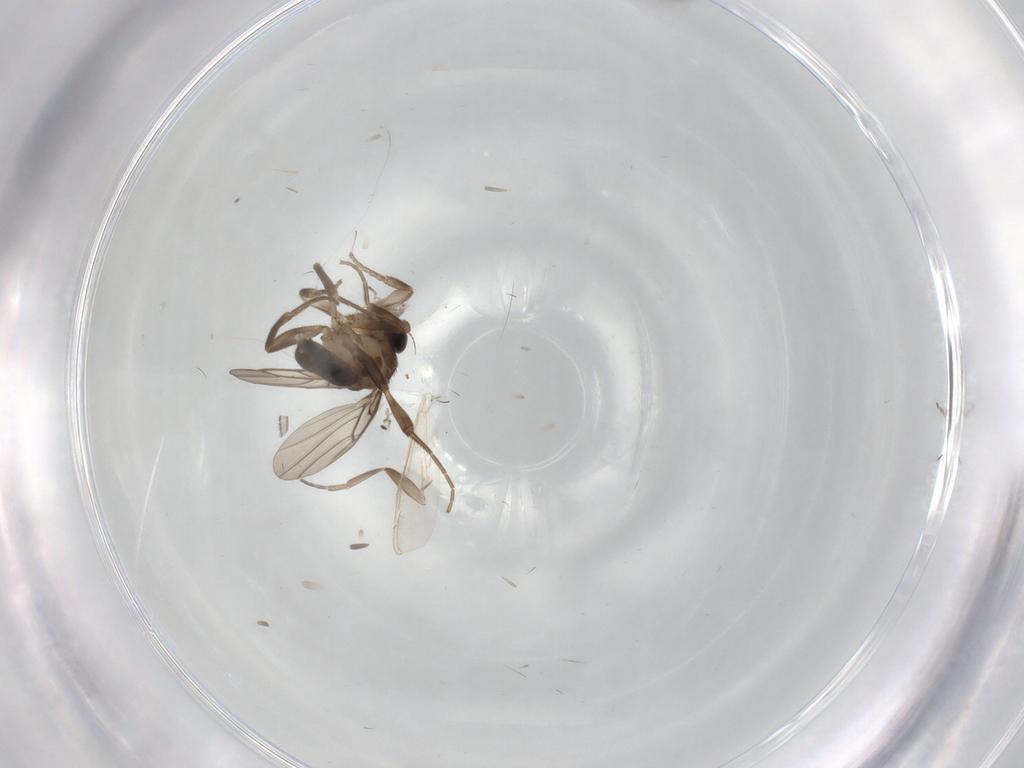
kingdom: Animalia
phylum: Arthropoda
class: Insecta
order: Diptera
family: Phoridae
